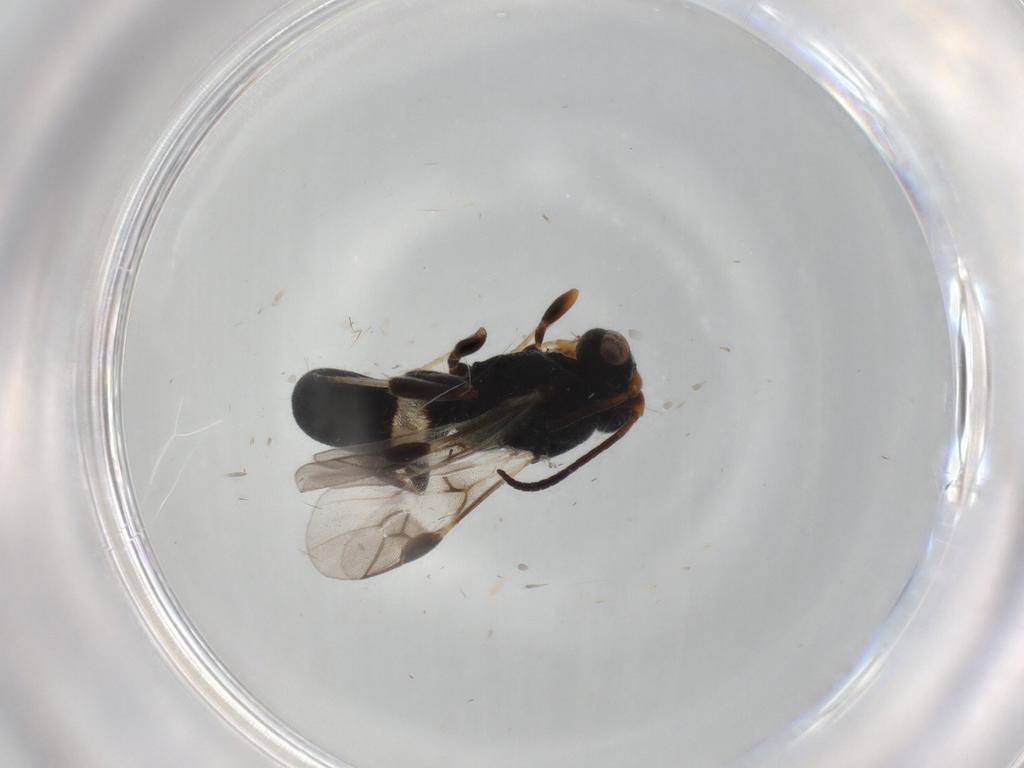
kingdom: Animalia
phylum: Arthropoda
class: Insecta
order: Hymenoptera
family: Braconidae
